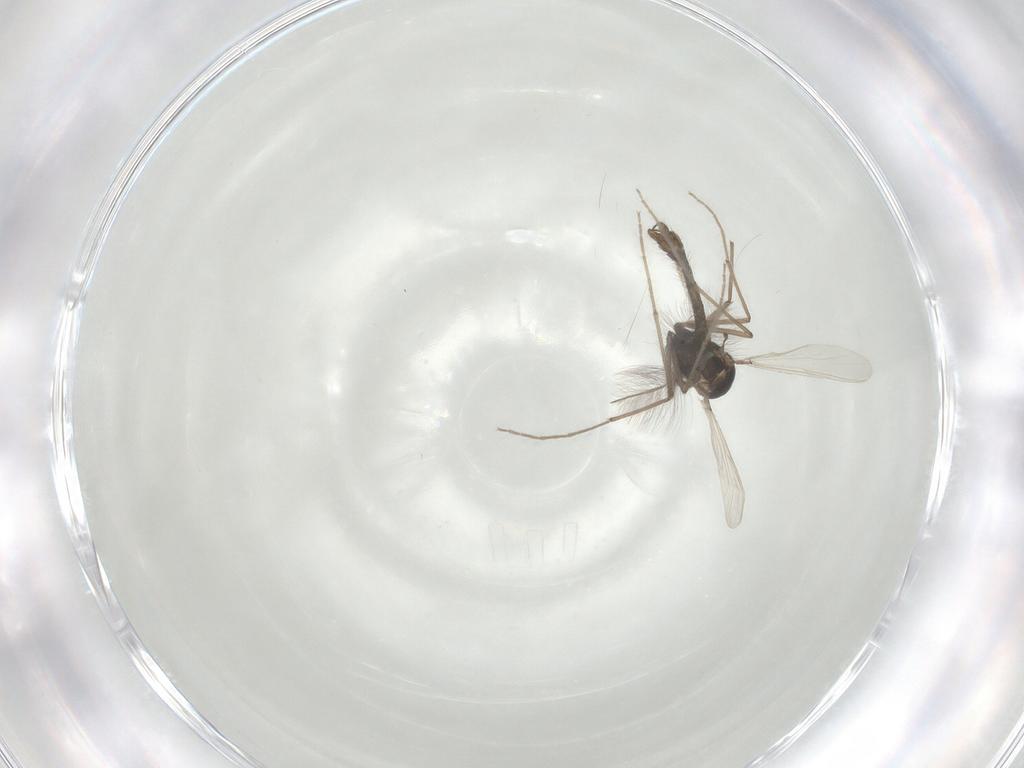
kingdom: Animalia
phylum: Arthropoda
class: Insecta
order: Diptera
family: Chironomidae
